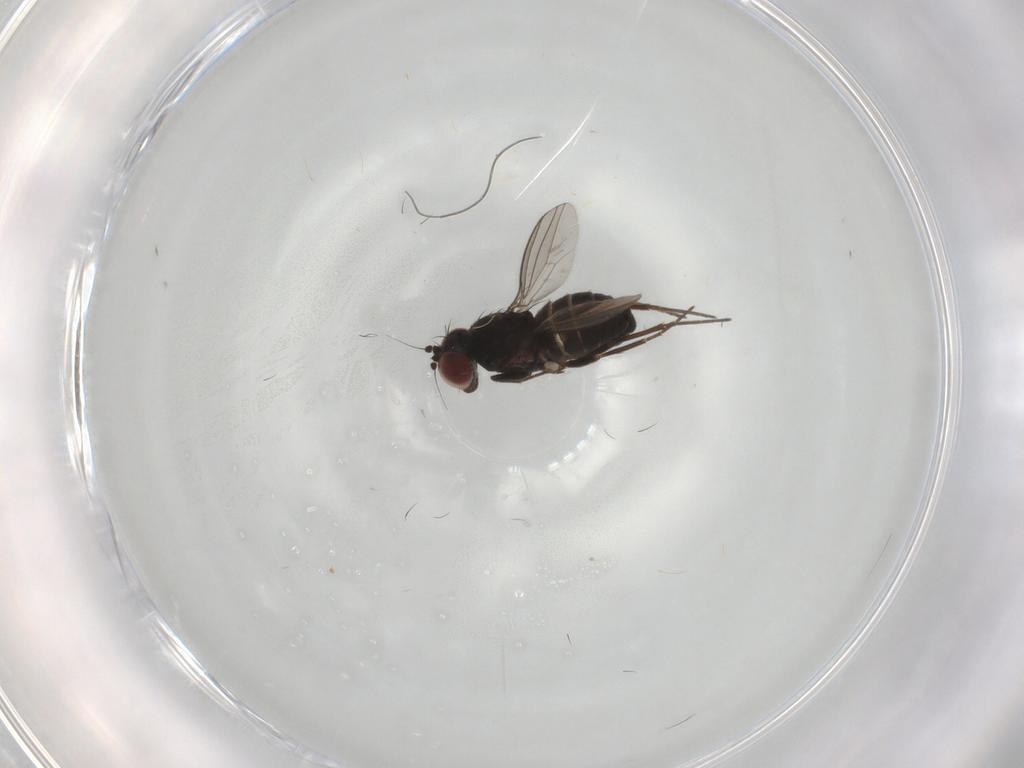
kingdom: Animalia
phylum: Arthropoda
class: Insecta
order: Diptera
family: Dolichopodidae
